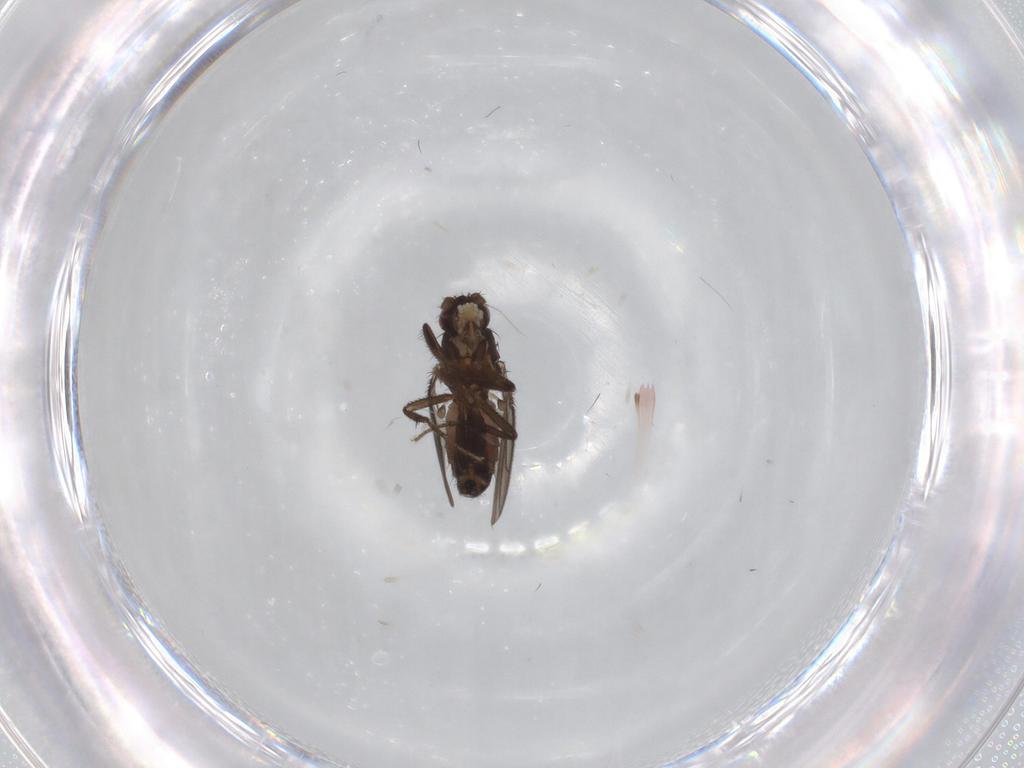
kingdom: Animalia
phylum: Arthropoda
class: Insecta
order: Diptera
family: Sphaeroceridae
